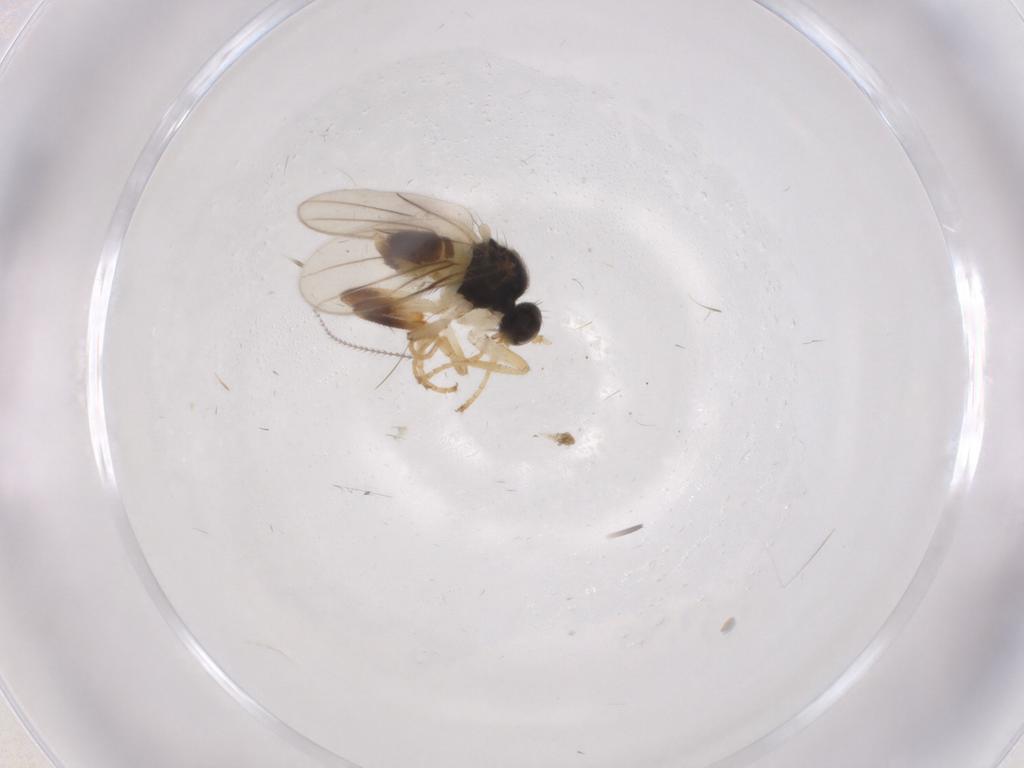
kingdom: Animalia
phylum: Arthropoda
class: Insecta
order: Diptera
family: Hybotidae
